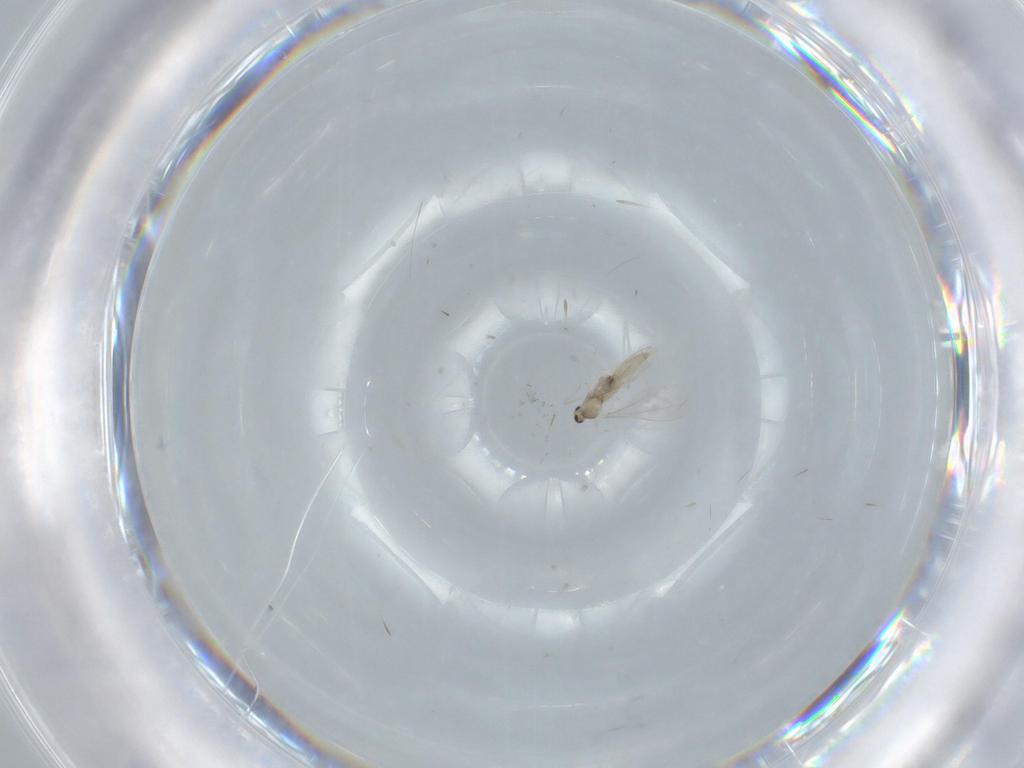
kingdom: Animalia
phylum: Arthropoda
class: Insecta
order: Diptera
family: Cecidomyiidae
